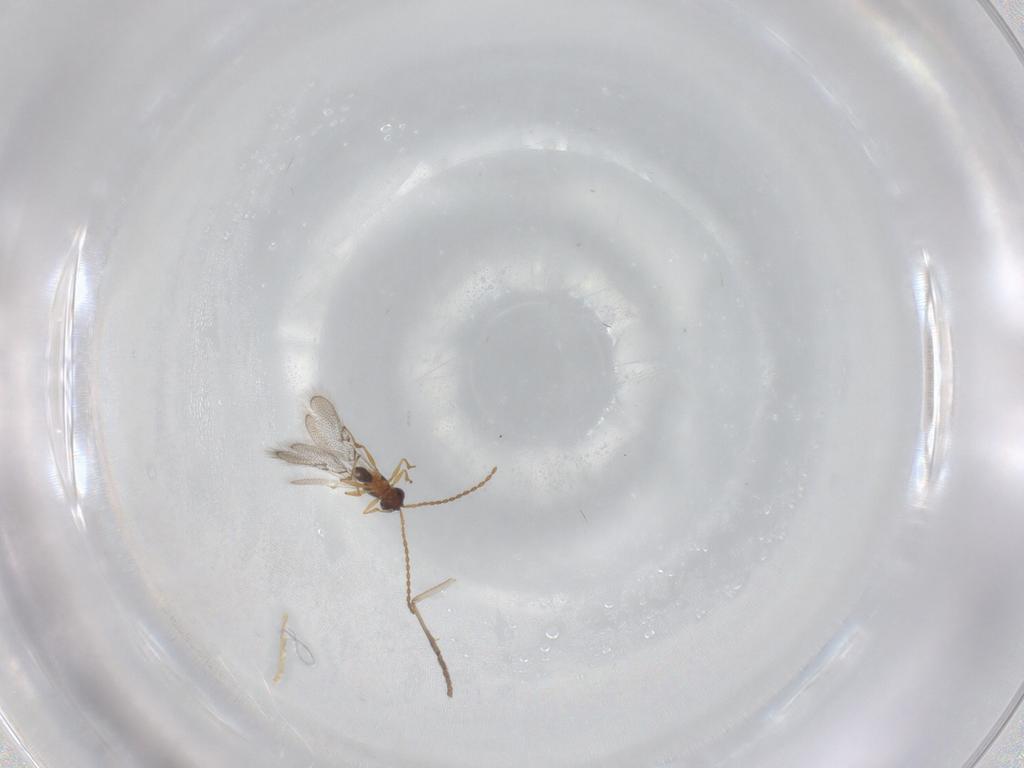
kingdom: Animalia
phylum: Arthropoda
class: Insecta
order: Hymenoptera
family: Figitidae
